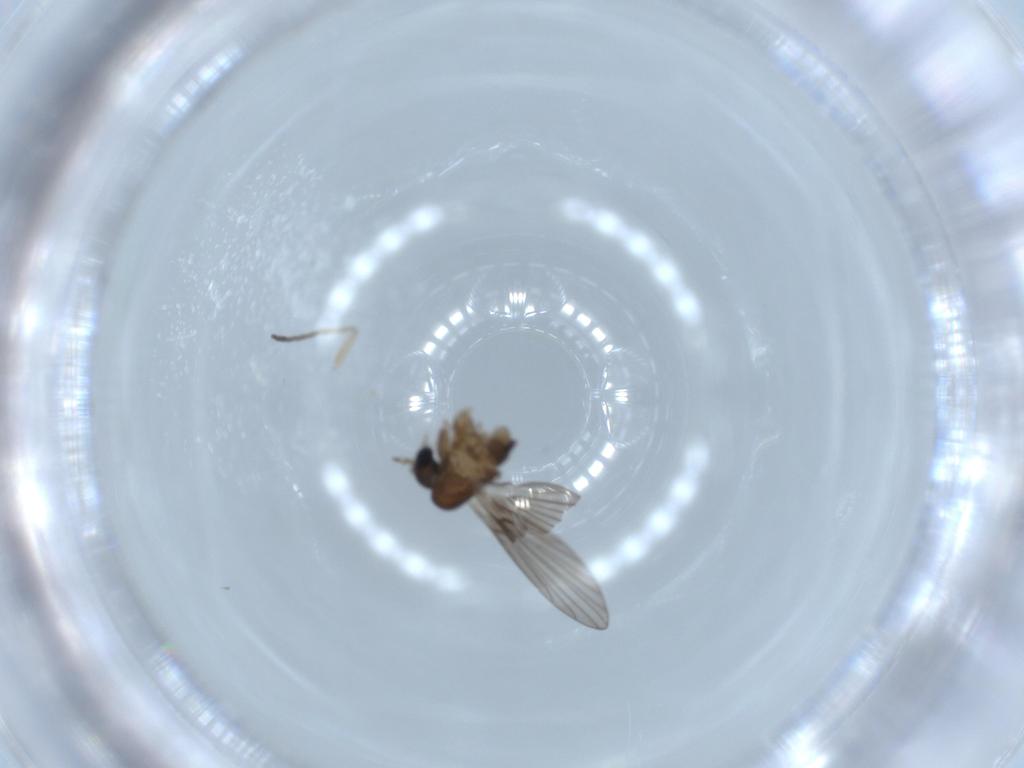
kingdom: Animalia
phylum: Arthropoda
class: Insecta
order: Diptera
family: Psychodidae
